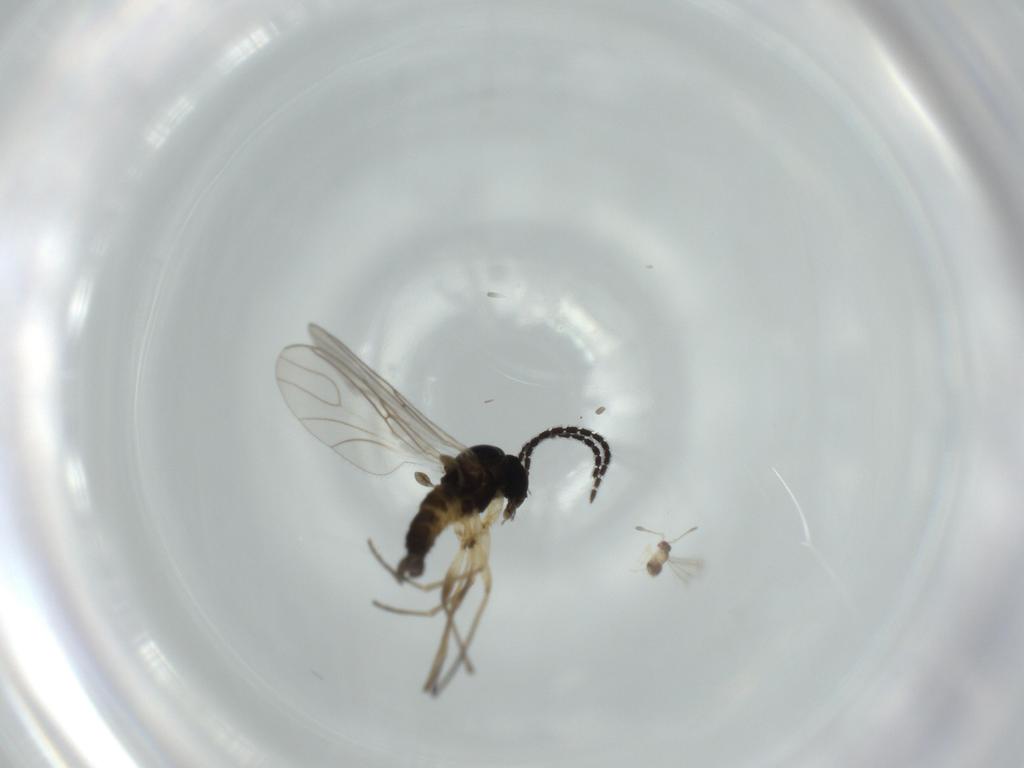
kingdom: Animalia
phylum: Arthropoda
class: Insecta
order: Diptera
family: Sciaridae
